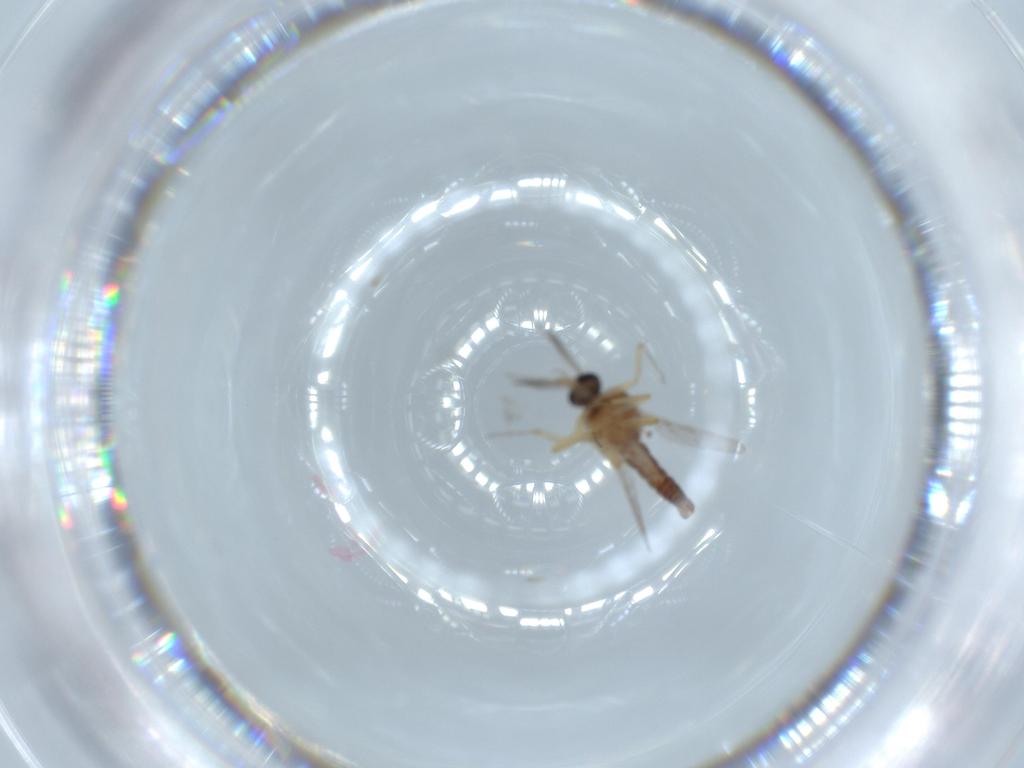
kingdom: Animalia
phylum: Arthropoda
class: Insecta
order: Diptera
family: Ceratopogonidae
